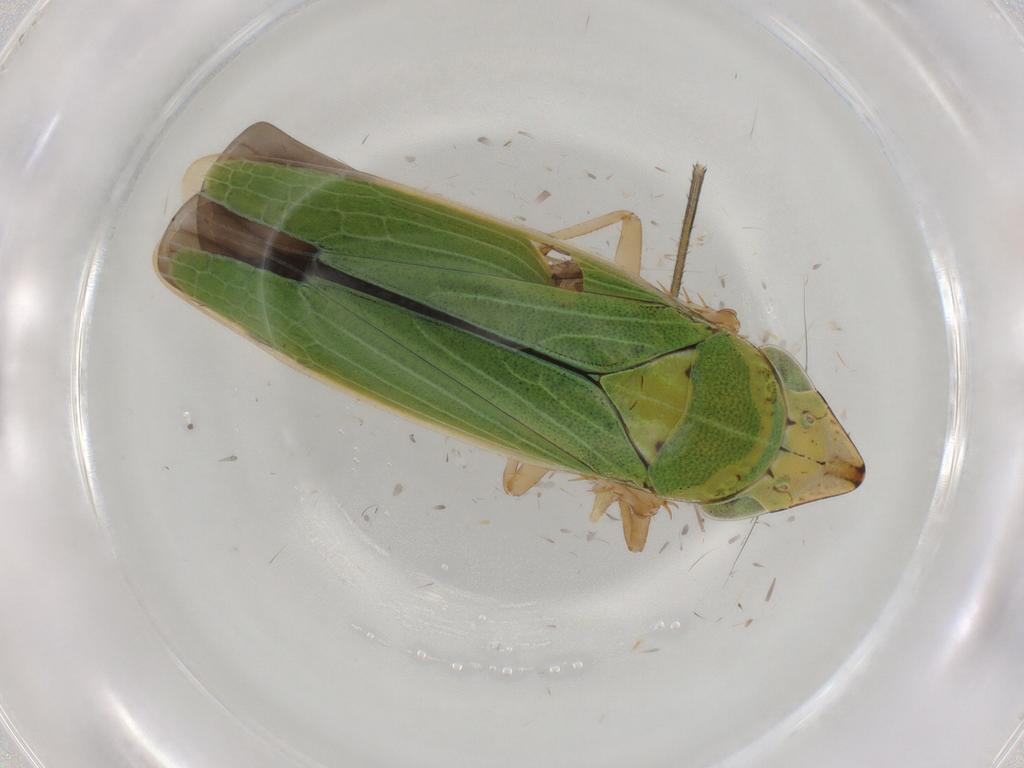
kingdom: Animalia
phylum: Arthropoda
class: Insecta
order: Hemiptera
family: Cicadellidae
